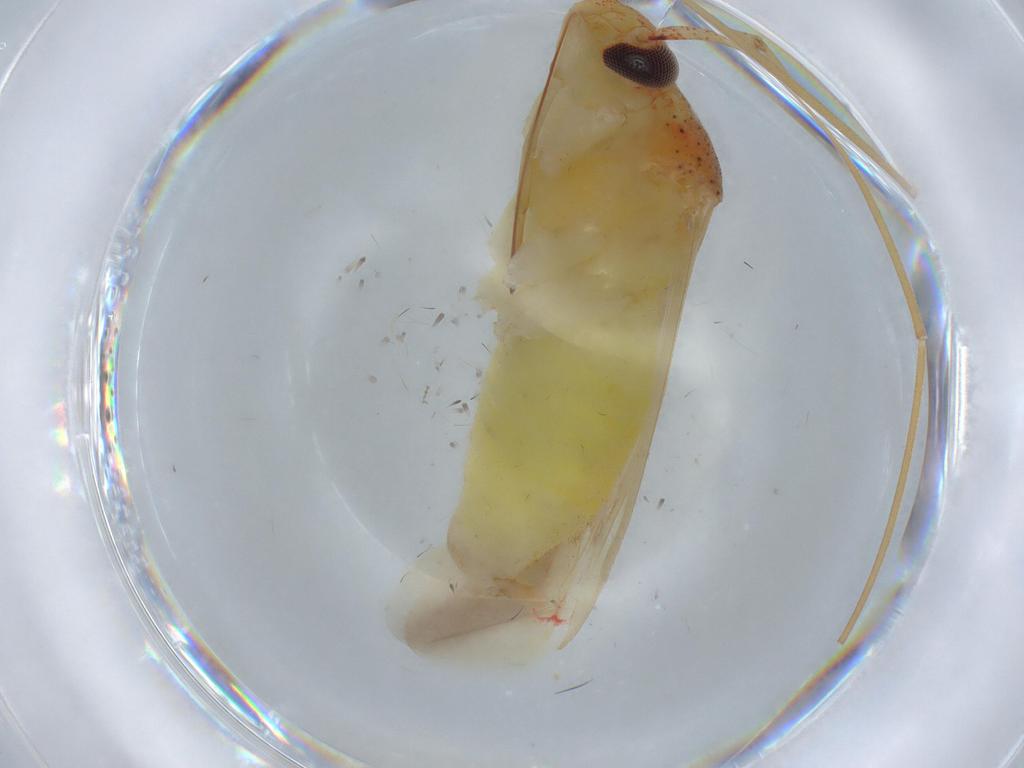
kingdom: Animalia
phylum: Arthropoda
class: Insecta
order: Hemiptera
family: Miridae
